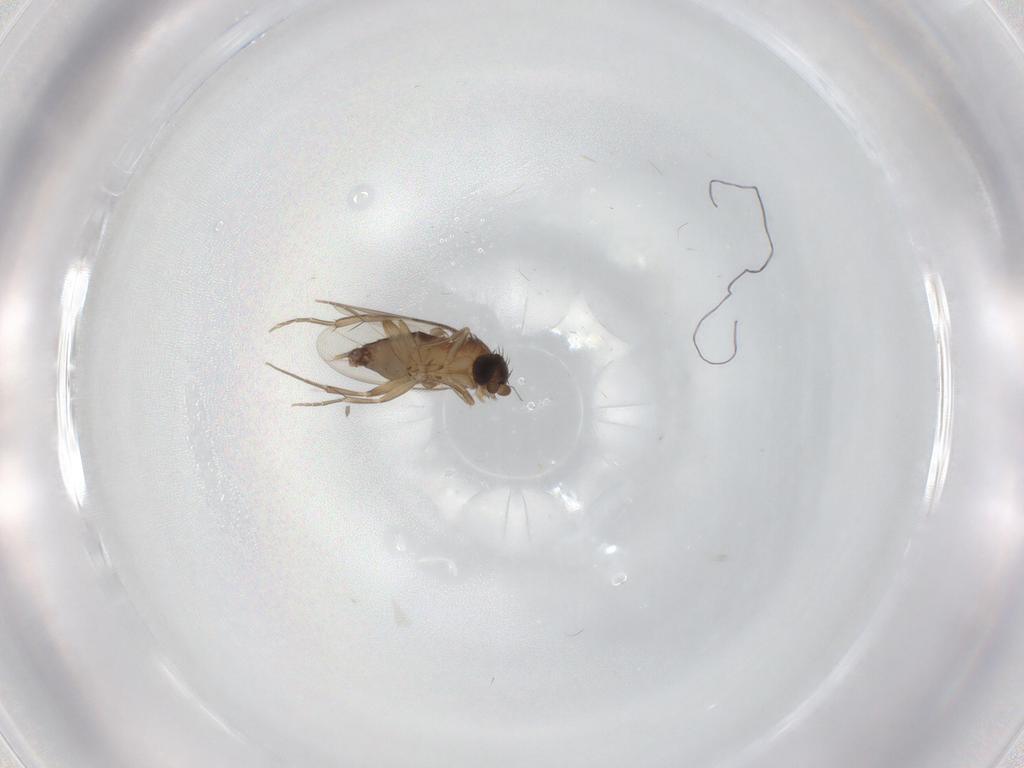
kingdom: Animalia
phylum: Arthropoda
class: Insecta
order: Diptera
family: Phoridae
